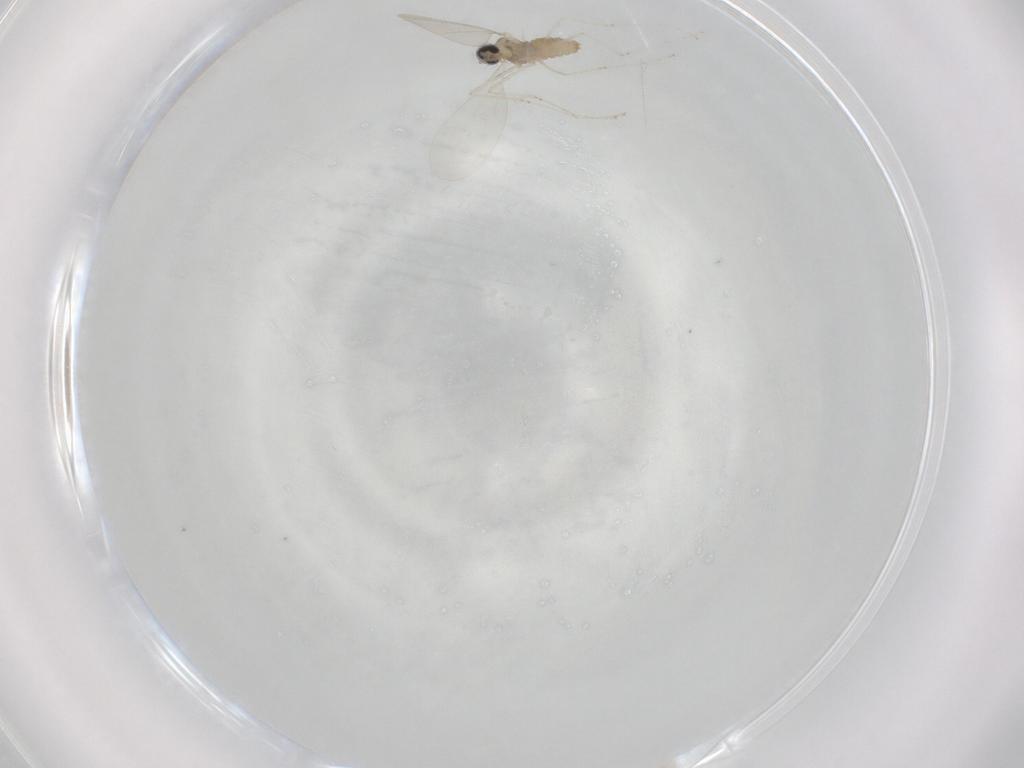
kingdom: Animalia
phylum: Arthropoda
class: Insecta
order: Diptera
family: Cecidomyiidae
